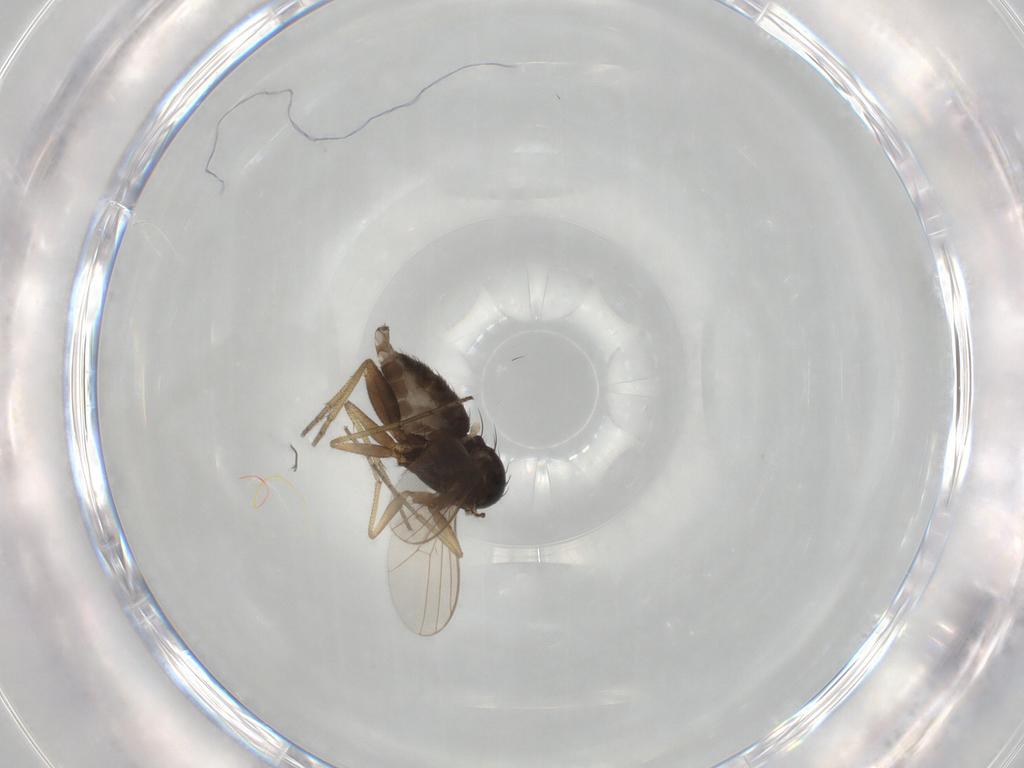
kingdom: Animalia
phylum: Arthropoda
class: Insecta
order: Diptera
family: Dolichopodidae
